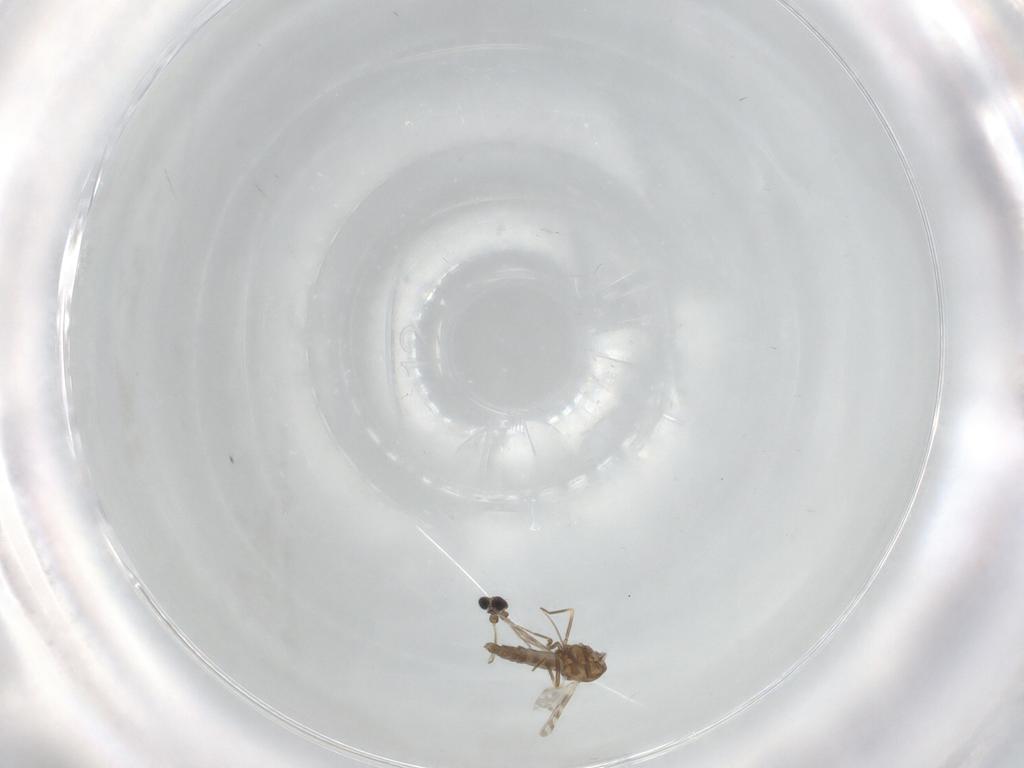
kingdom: Animalia
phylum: Arthropoda
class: Insecta
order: Diptera
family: Ceratopogonidae
